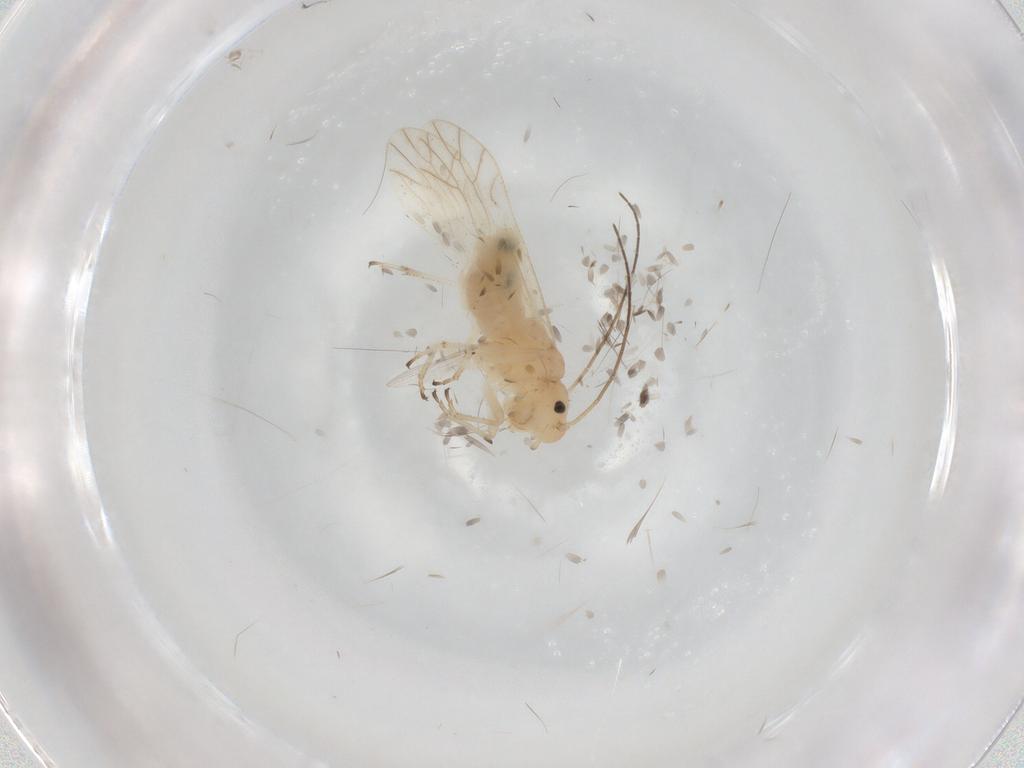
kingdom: Animalia
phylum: Arthropoda
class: Insecta
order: Psocodea
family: Caeciliusidae
